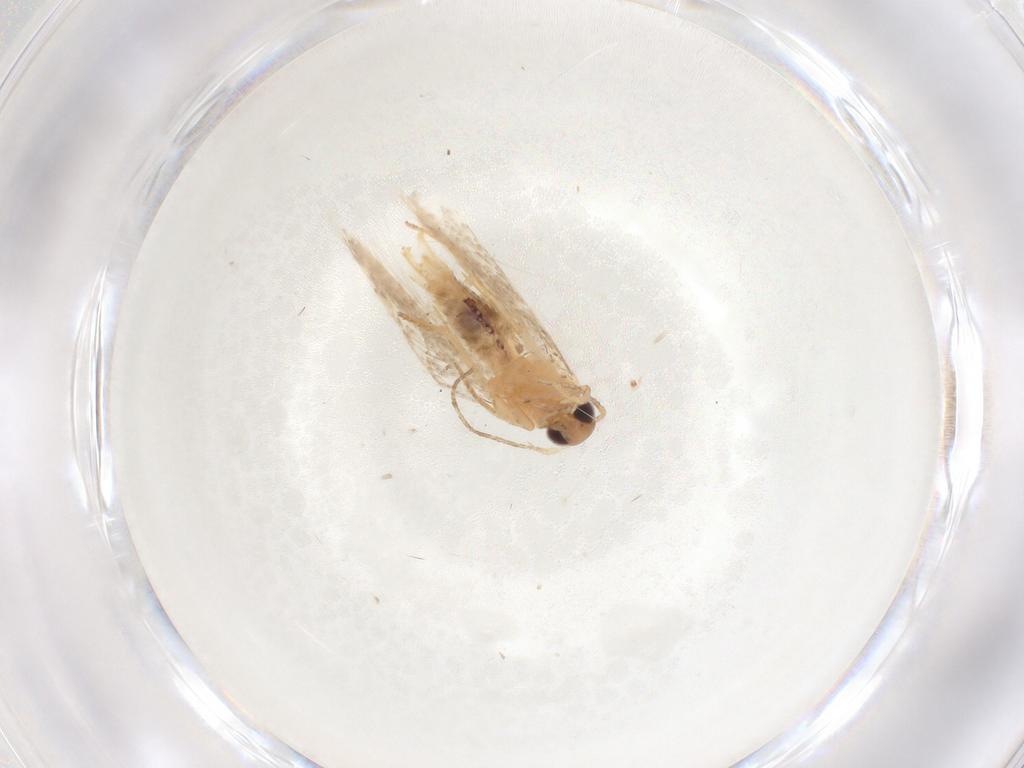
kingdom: Animalia
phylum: Arthropoda
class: Insecta
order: Lepidoptera
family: Gelechiidae
